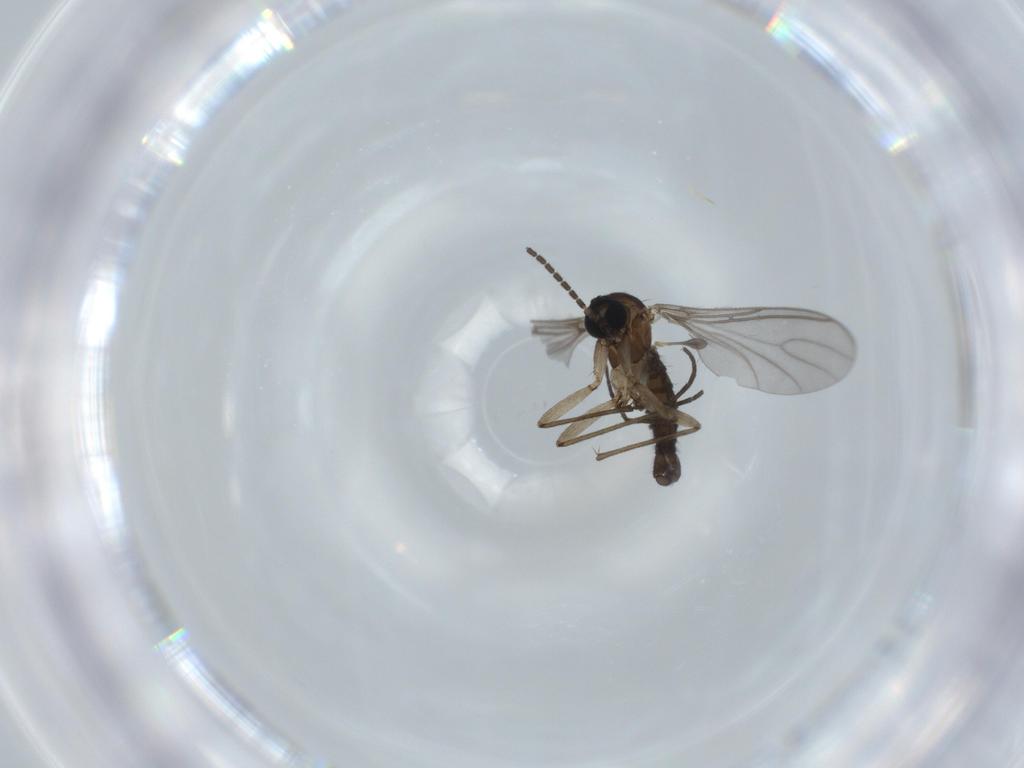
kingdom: Animalia
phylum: Arthropoda
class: Insecta
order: Diptera
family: Sciaridae
